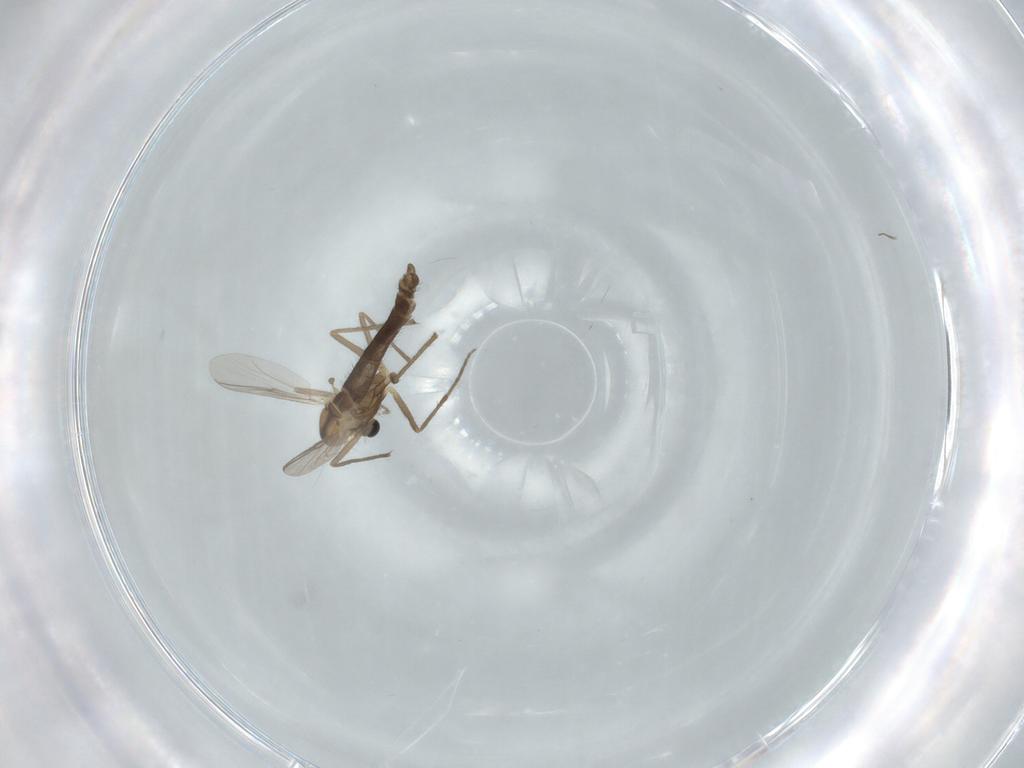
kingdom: Animalia
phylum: Arthropoda
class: Insecta
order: Diptera
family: Chironomidae
